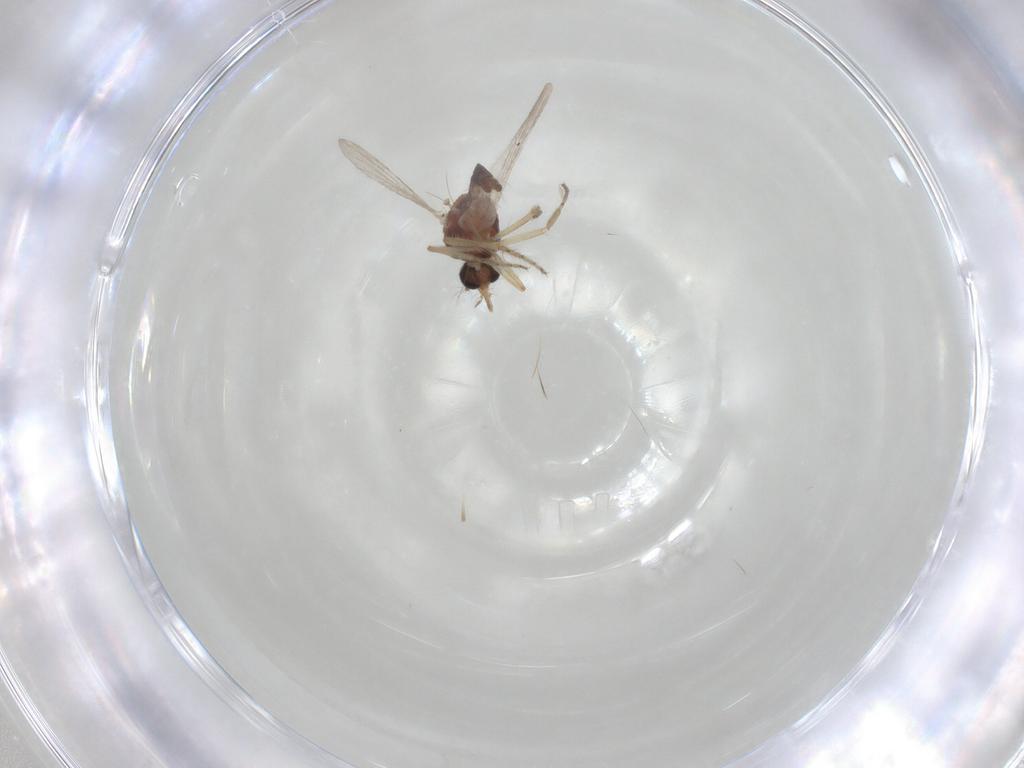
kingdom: Animalia
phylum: Arthropoda
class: Insecta
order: Diptera
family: Ceratopogonidae
